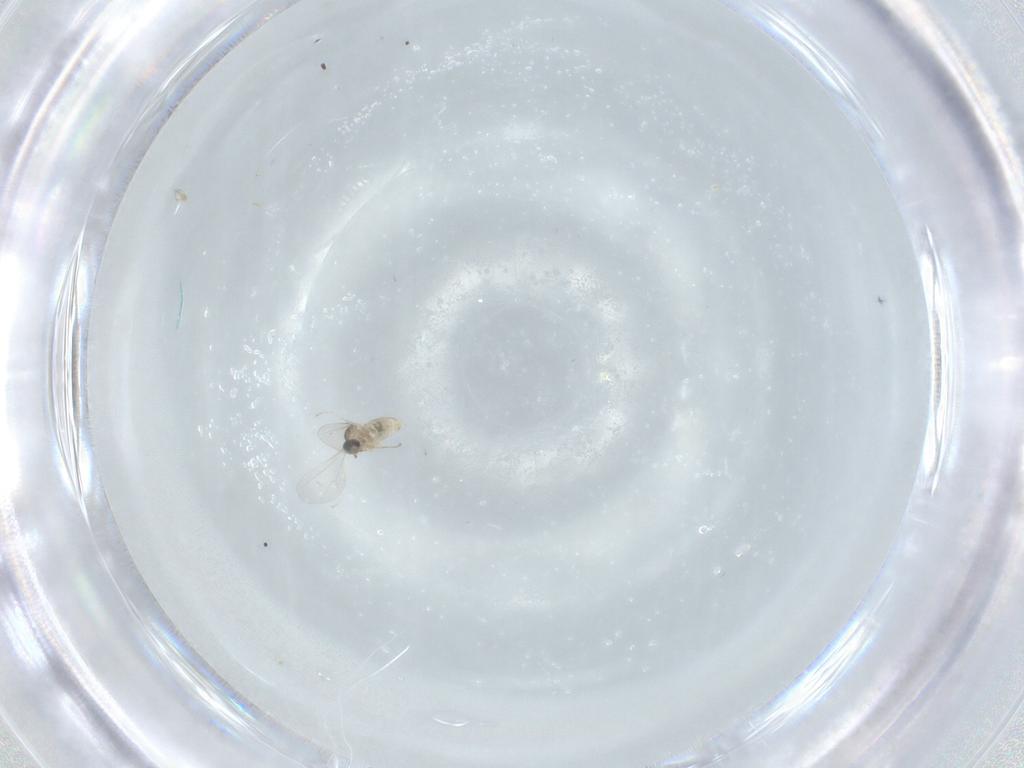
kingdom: Animalia
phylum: Arthropoda
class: Insecta
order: Diptera
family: Cecidomyiidae
